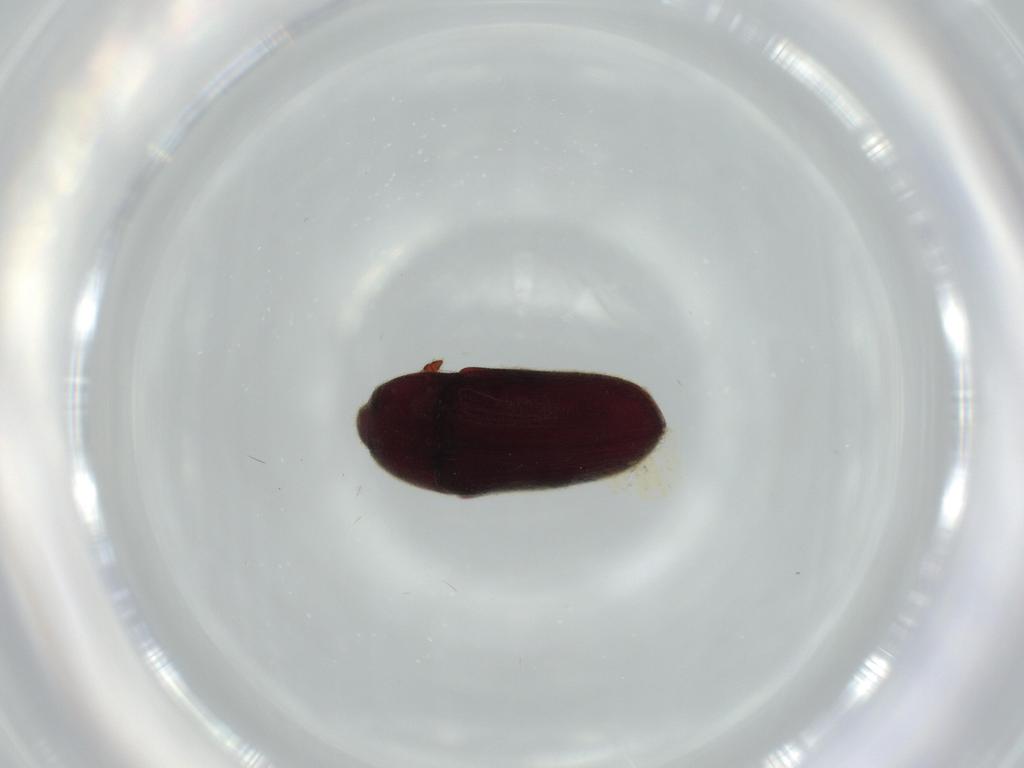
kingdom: Animalia
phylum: Arthropoda
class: Insecta
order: Coleoptera
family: Throscidae
